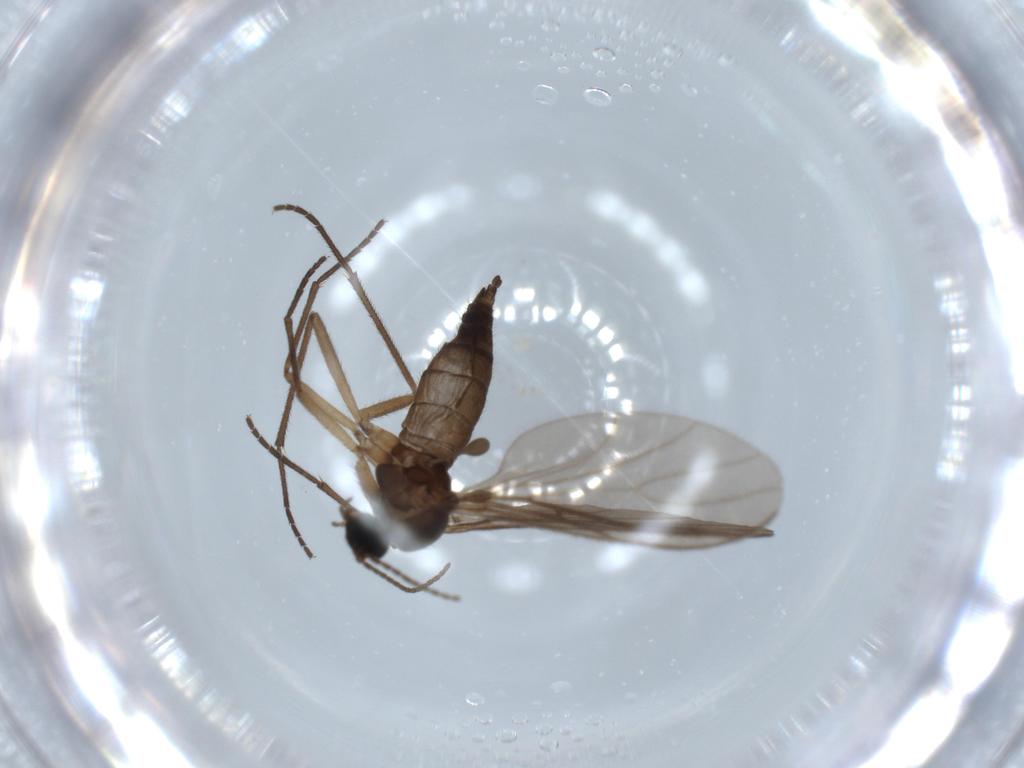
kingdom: Animalia
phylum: Arthropoda
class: Insecta
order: Diptera
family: Sciaridae
